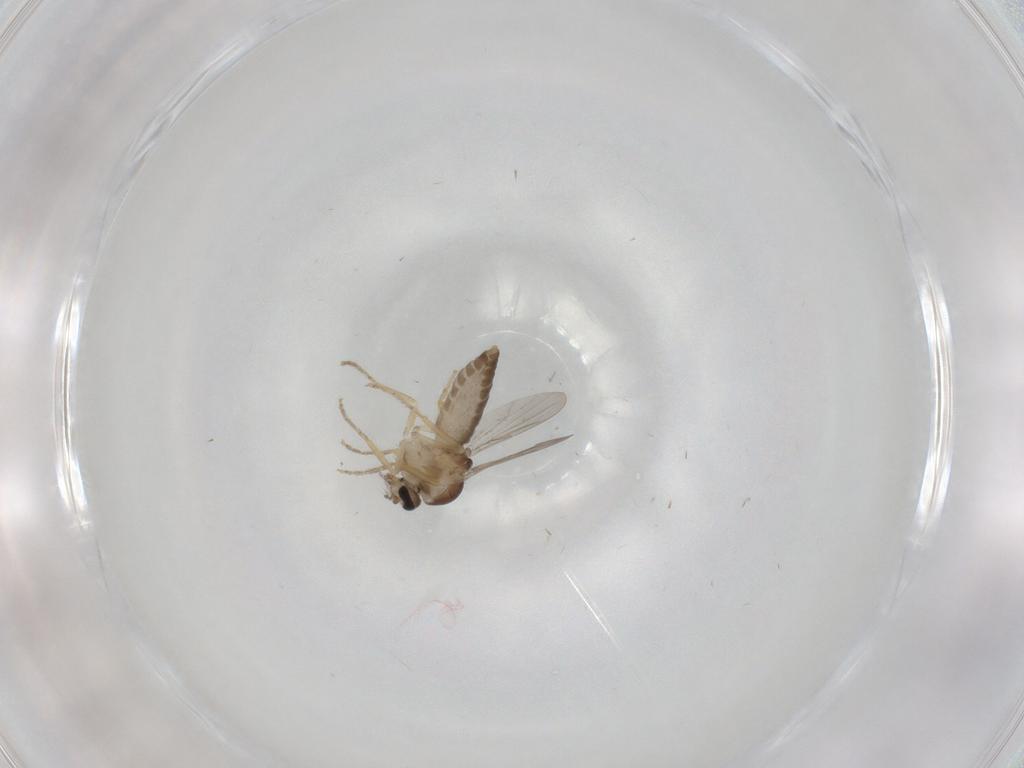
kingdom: Animalia
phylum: Arthropoda
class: Insecta
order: Diptera
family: Ceratopogonidae
